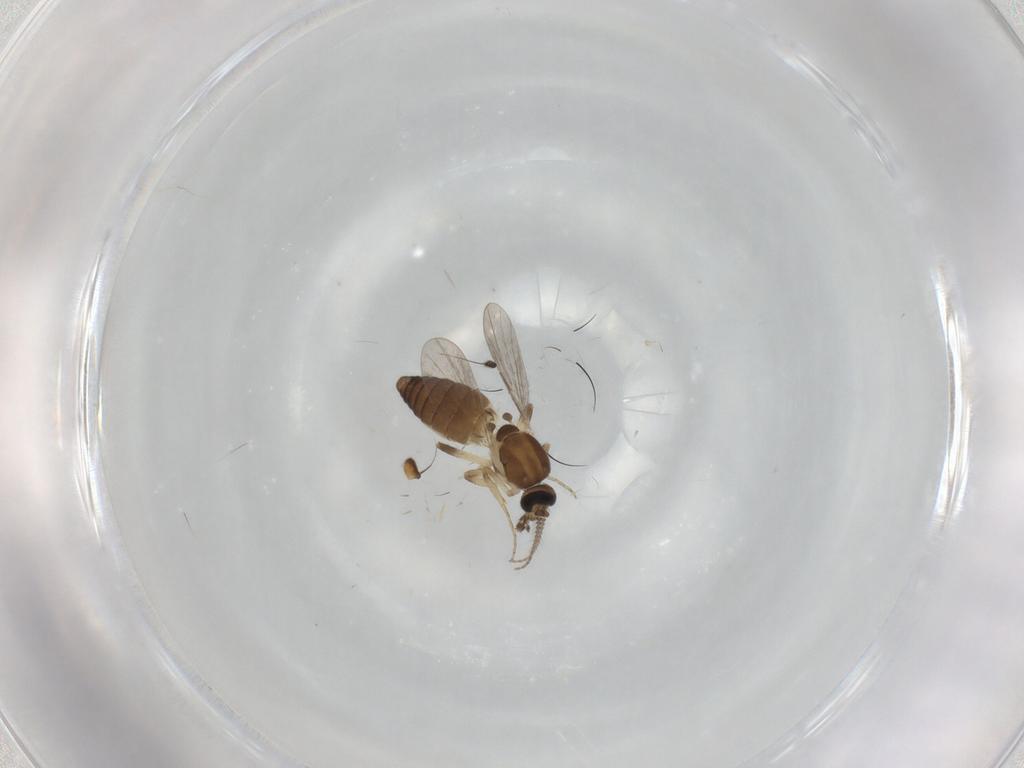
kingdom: Animalia
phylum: Arthropoda
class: Insecta
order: Diptera
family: Ceratopogonidae
